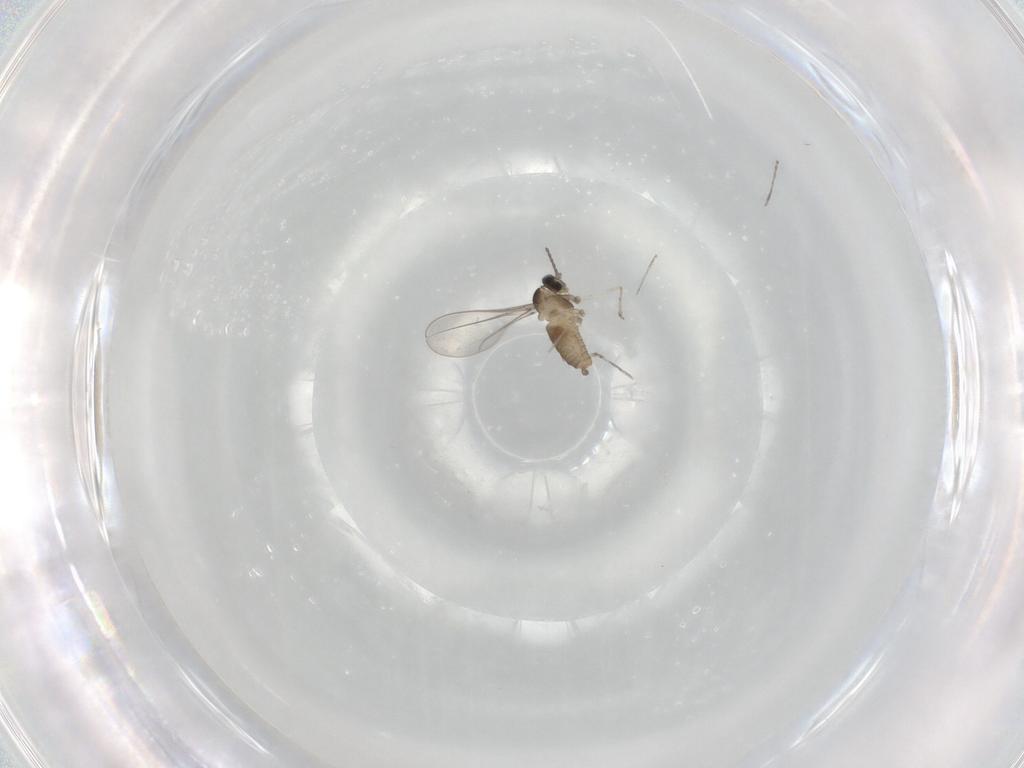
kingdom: Animalia
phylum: Arthropoda
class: Insecta
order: Diptera
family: Cecidomyiidae
